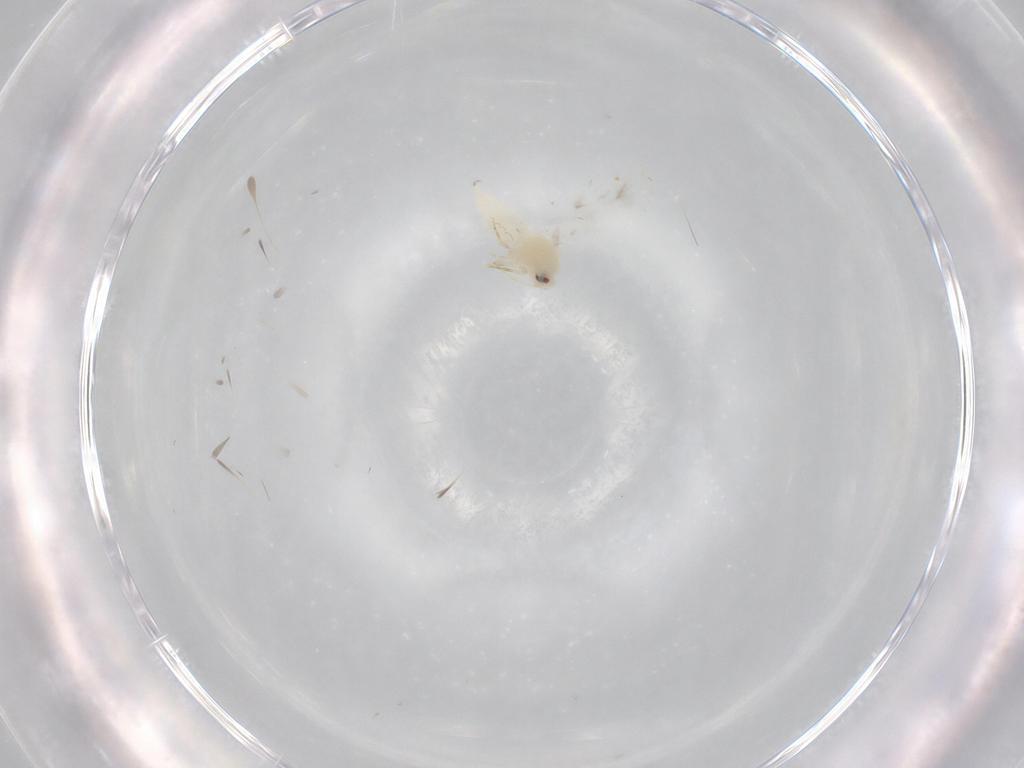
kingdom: Animalia
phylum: Arthropoda
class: Insecta
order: Hemiptera
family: Aleyrodidae
